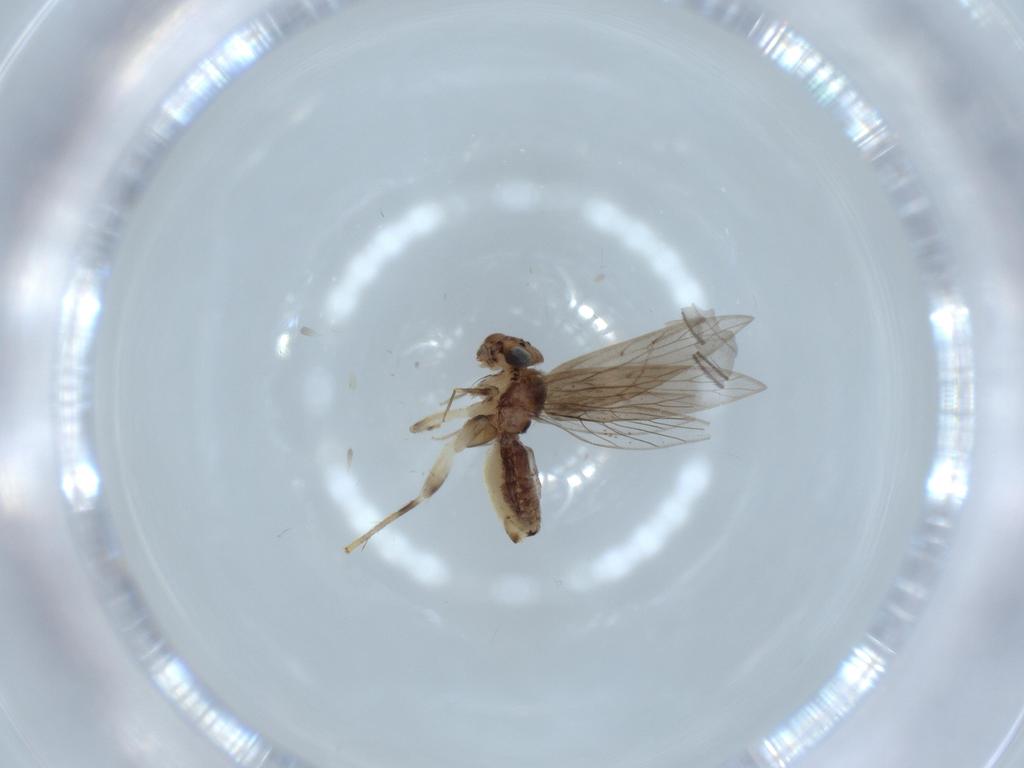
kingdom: Animalia
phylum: Arthropoda
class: Insecta
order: Psocodea
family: Lepidopsocidae
